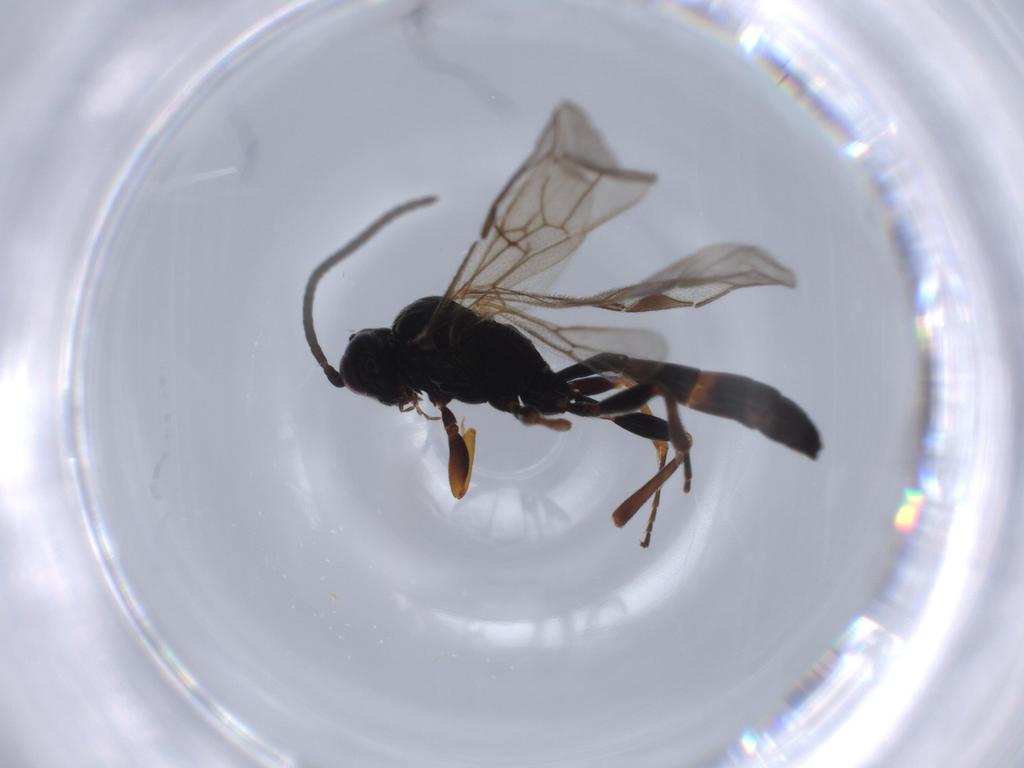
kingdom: Animalia
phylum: Arthropoda
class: Insecta
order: Hymenoptera
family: Ichneumonidae
